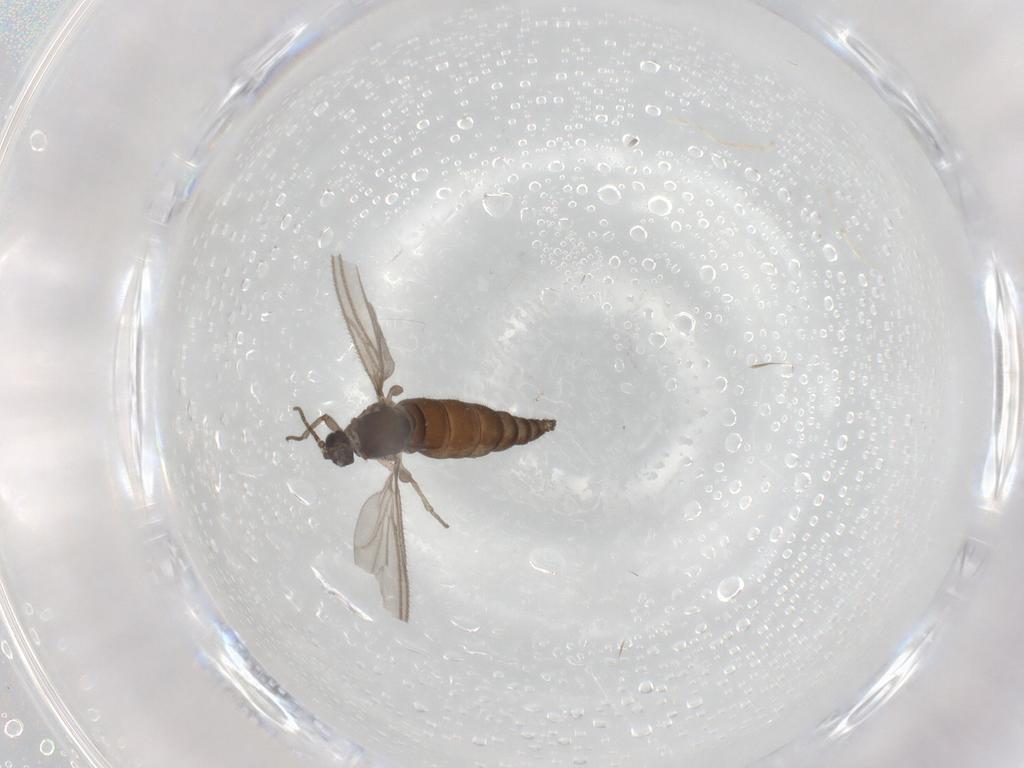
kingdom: Animalia
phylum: Arthropoda
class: Insecta
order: Diptera
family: Sciaridae
